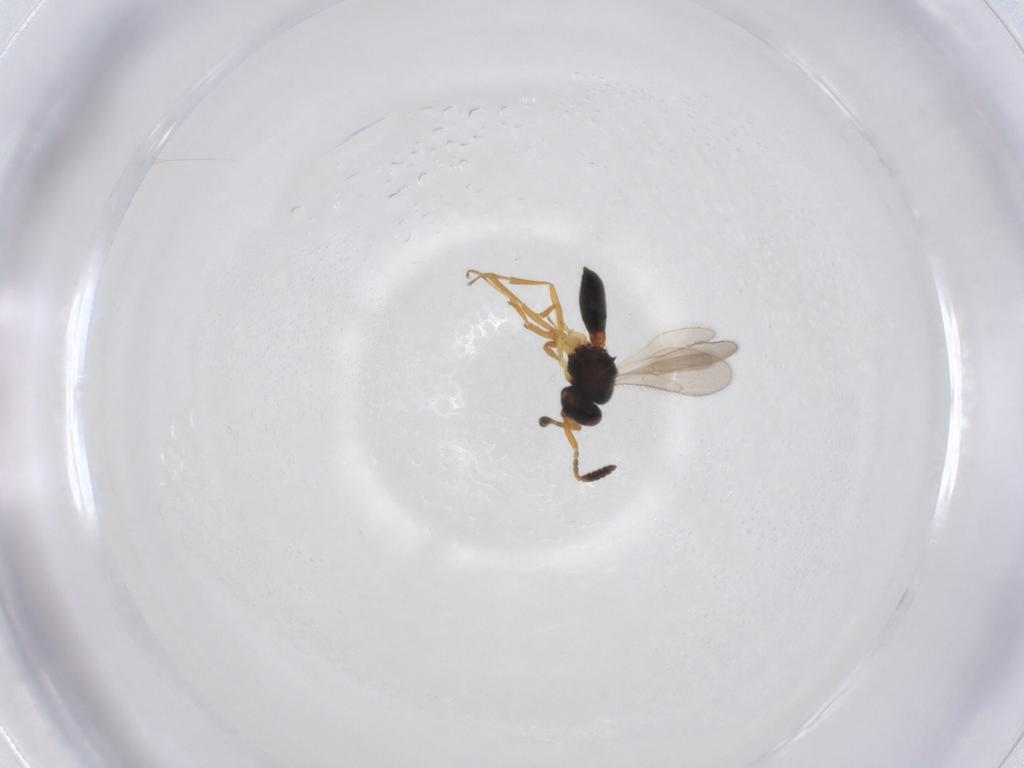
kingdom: Animalia
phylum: Arthropoda
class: Insecta
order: Hymenoptera
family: Scelionidae
